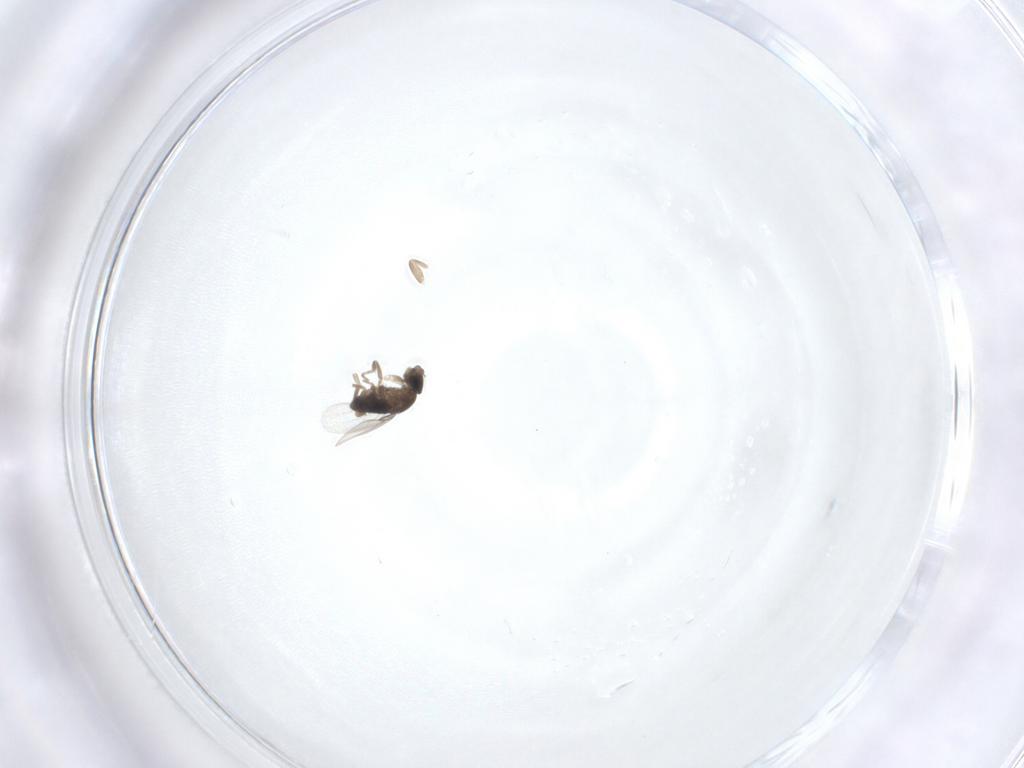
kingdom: Animalia
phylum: Arthropoda
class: Insecta
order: Diptera
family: Phoridae
